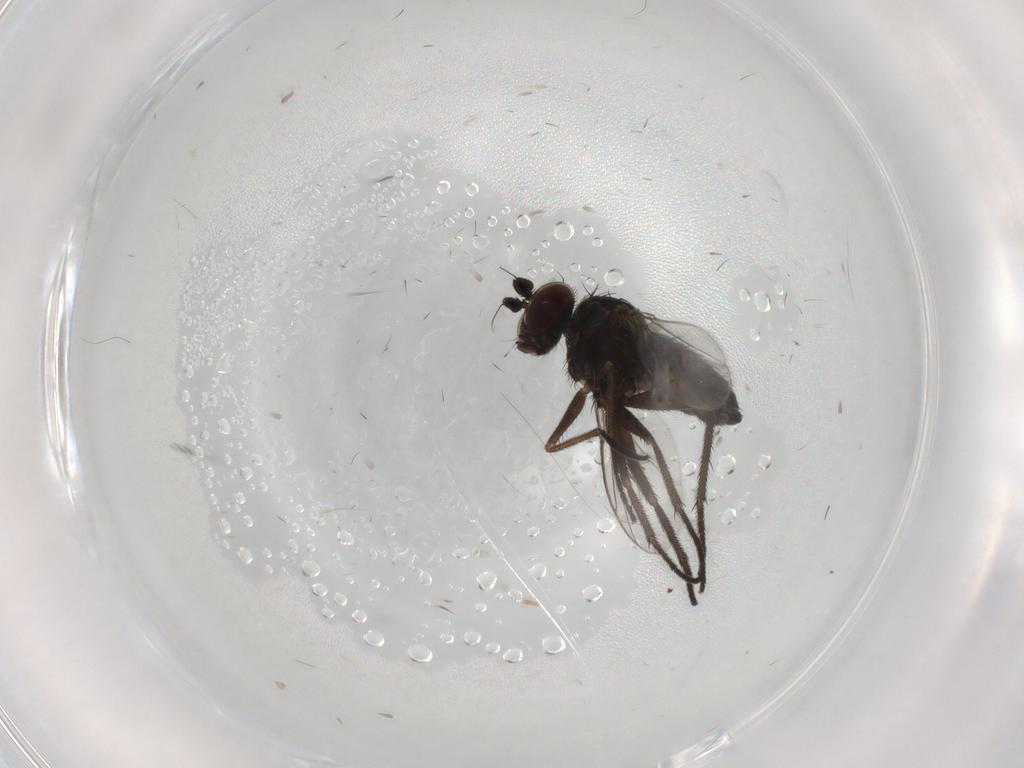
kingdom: Animalia
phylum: Arthropoda
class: Insecta
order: Diptera
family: Dolichopodidae
